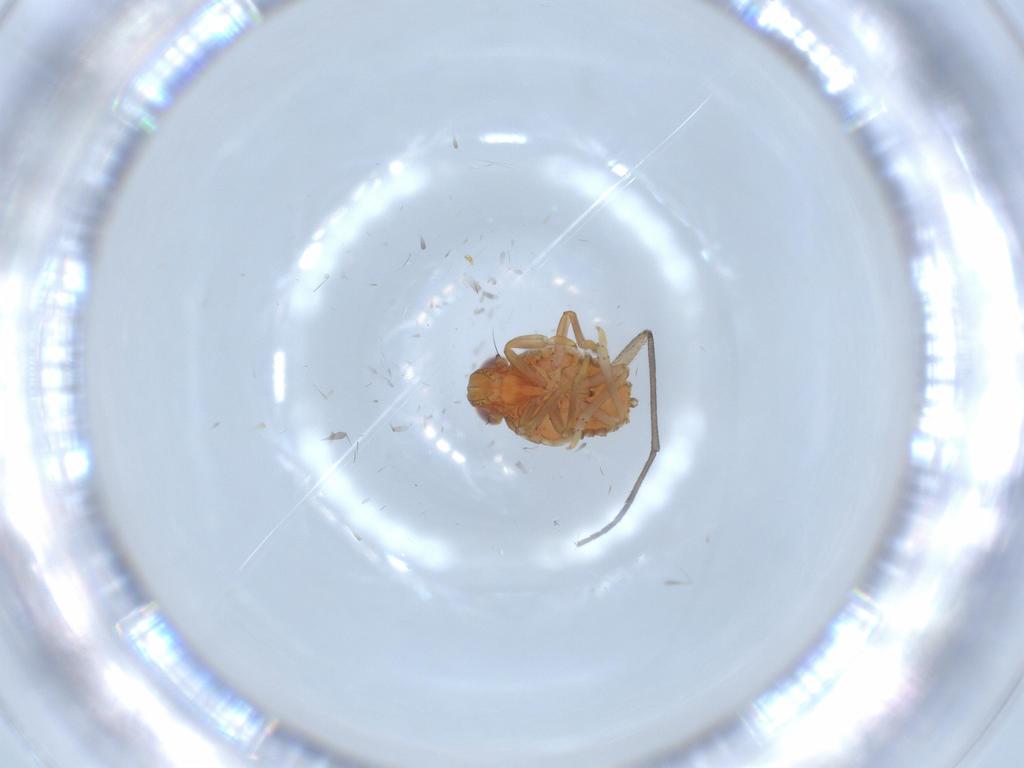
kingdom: Animalia
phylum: Arthropoda
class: Insecta
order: Hemiptera
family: Issidae
